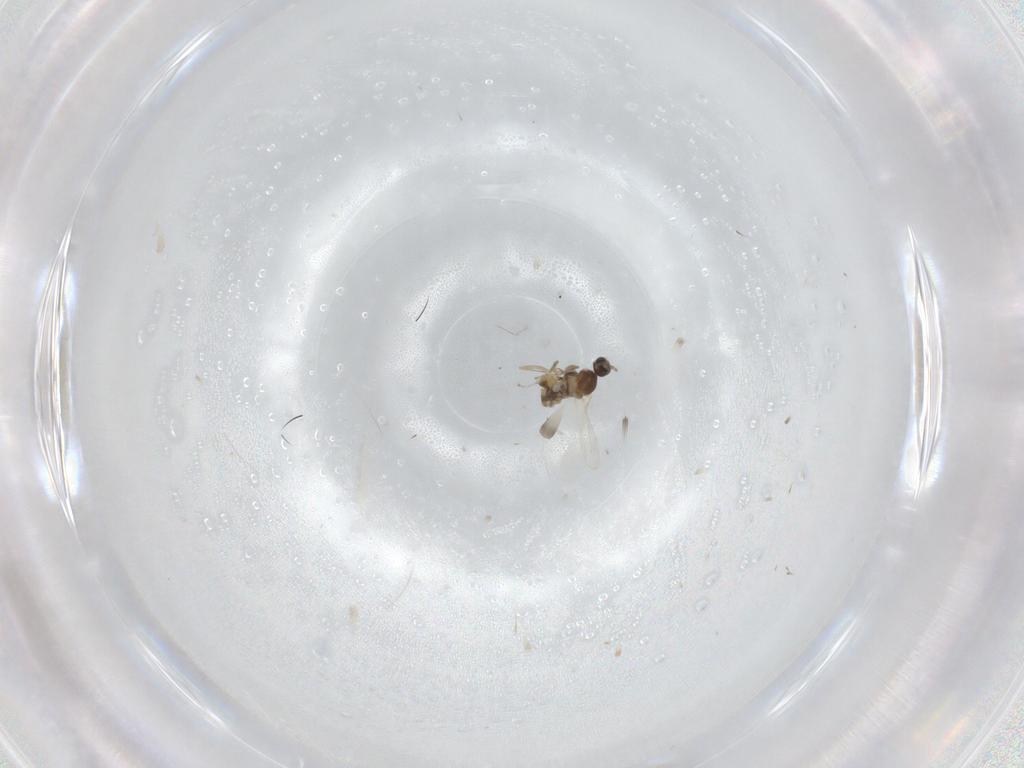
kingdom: Animalia
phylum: Arthropoda
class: Insecta
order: Diptera
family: Cecidomyiidae
